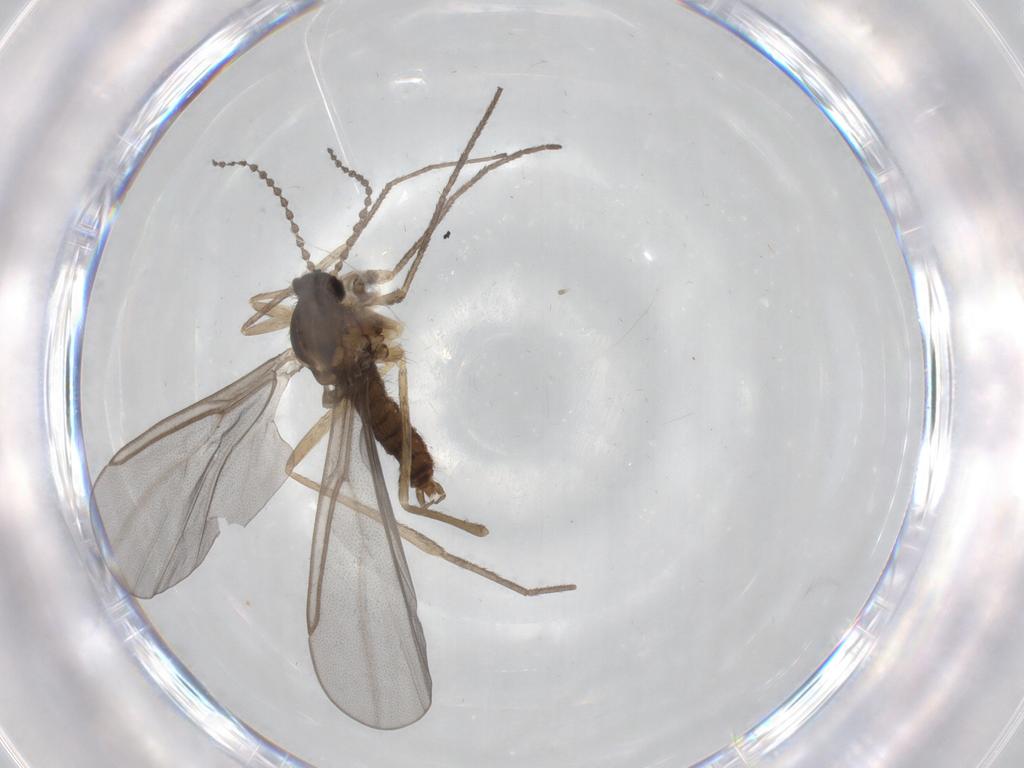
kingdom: Animalia
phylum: Arthropoda
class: Insecta
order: Diptera
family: Cecidomyiidae
